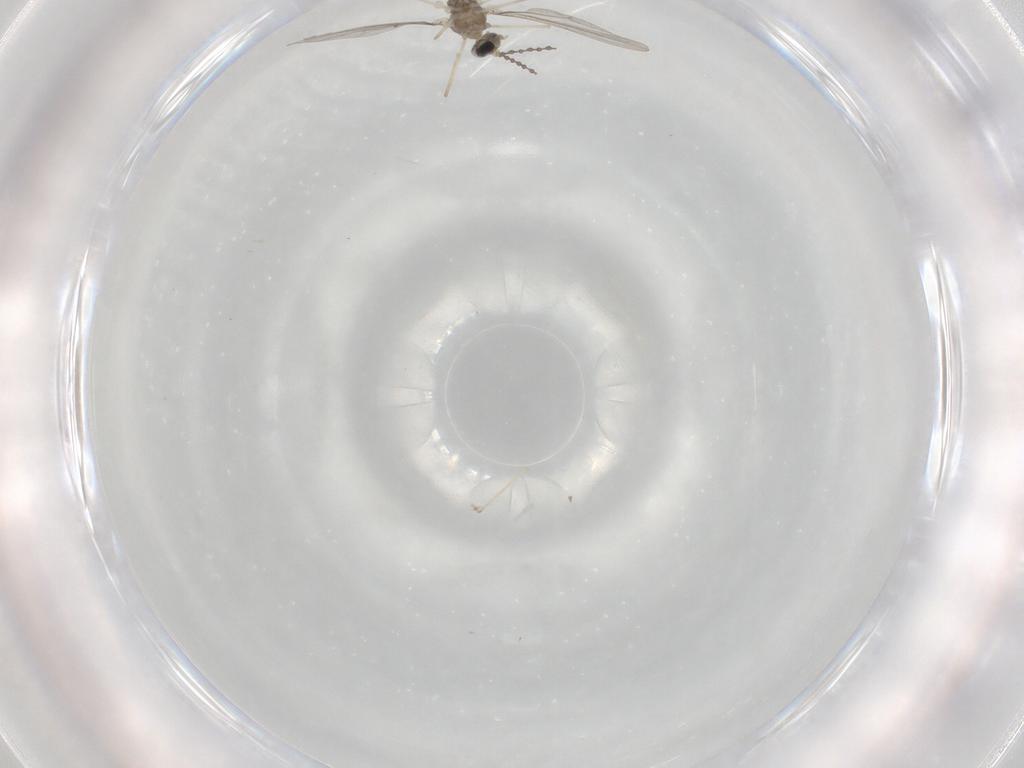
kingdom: Animalia
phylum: Arthropoda
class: Insecta
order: Diptera
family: Cecidomyiidae
